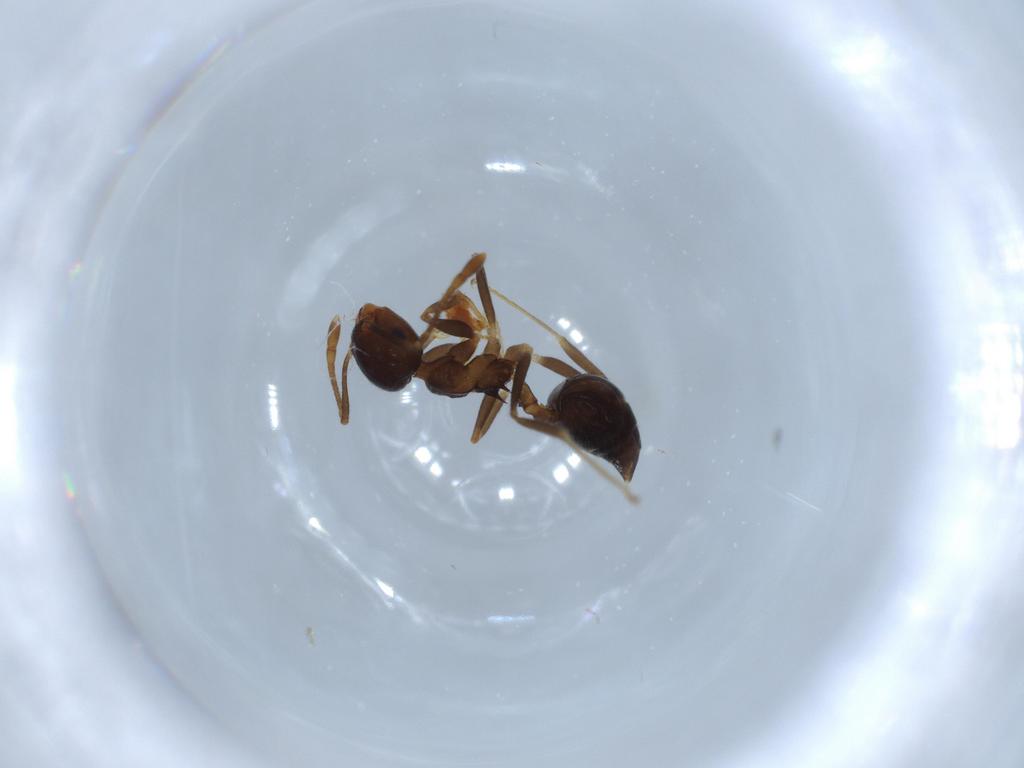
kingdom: Animalia
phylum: Arthropoda
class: Insecta
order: Hymenoptera
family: Formicidae
